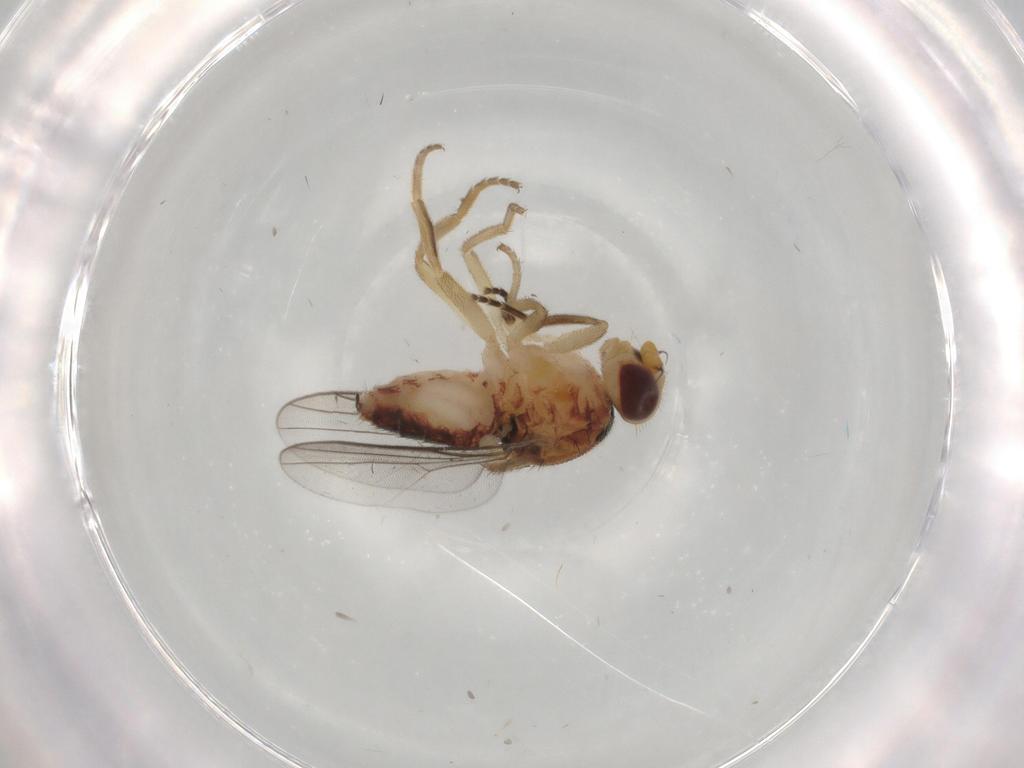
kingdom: Animalia
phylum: Arthropoda
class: Insecta
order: Diptera
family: Chloropidae
